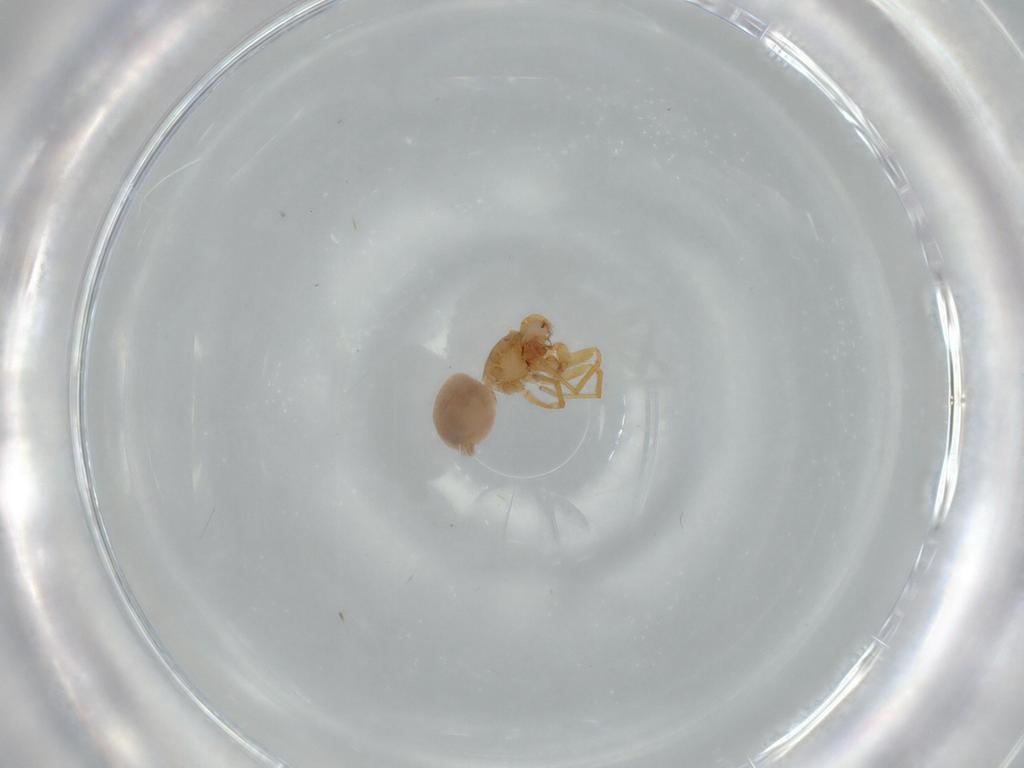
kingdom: Animalia
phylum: Arthropoda
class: Arachnida
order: Araneae
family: Oonopidae
